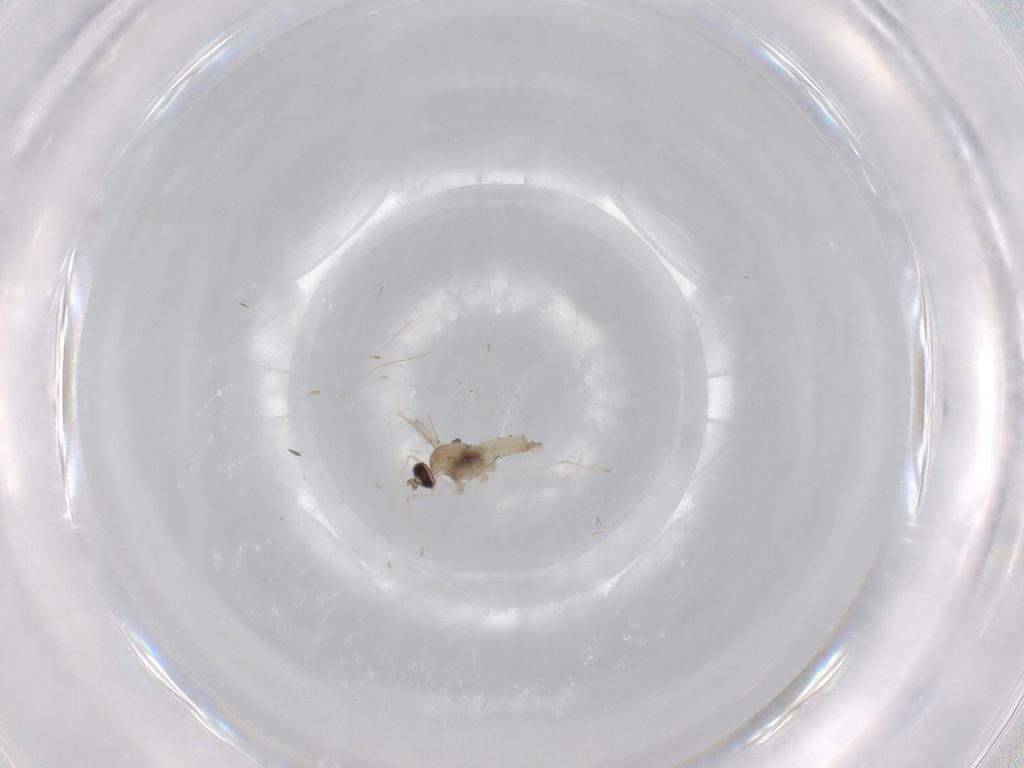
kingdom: Animalia
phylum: Arthropoda
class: Insecta
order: Diptera
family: Cecidomyiidae
